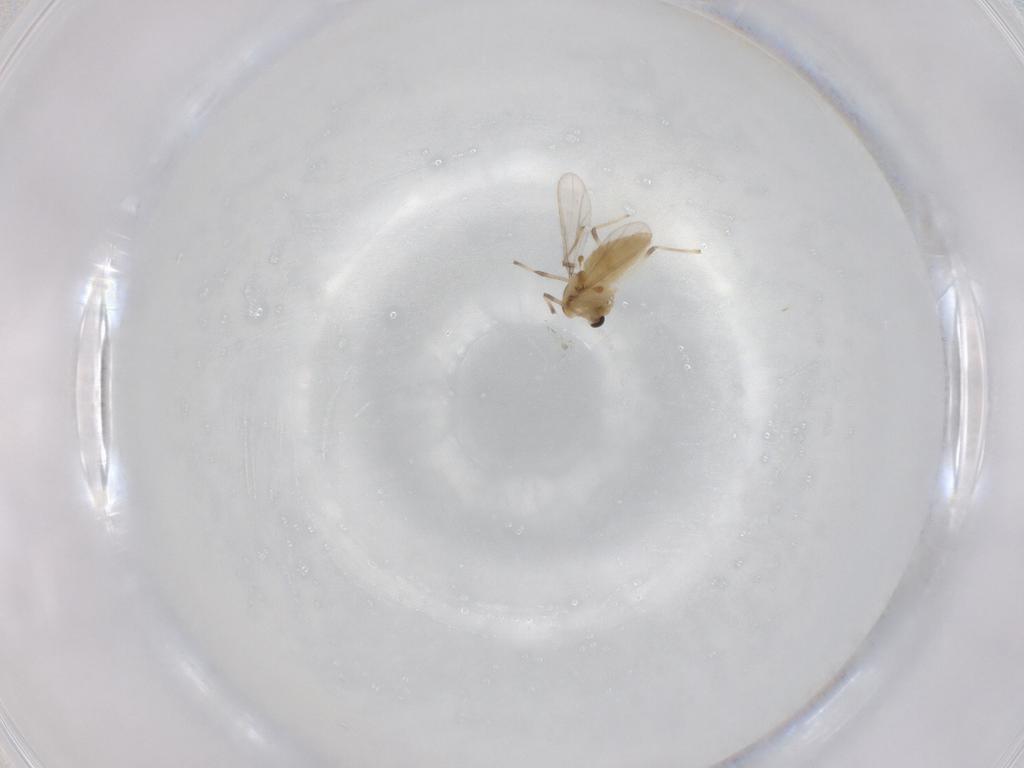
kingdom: Animalia
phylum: Arthropoda
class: Insecta
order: Diptera
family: Chironomidae
